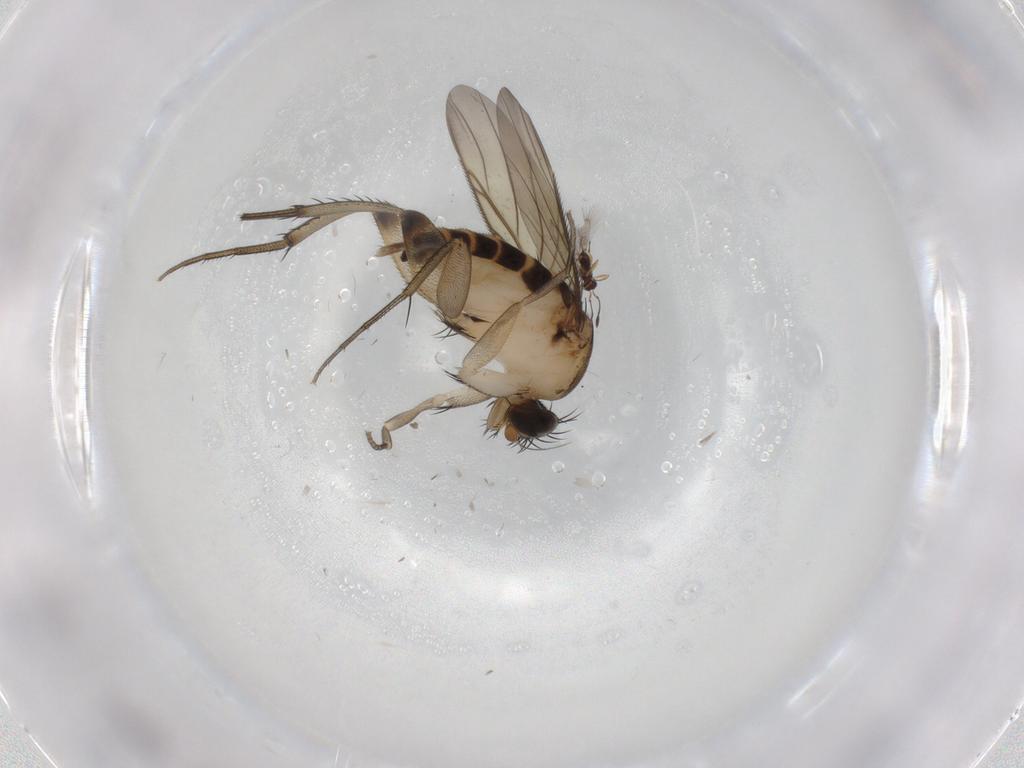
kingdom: Animalia
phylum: Arthropoda
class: Insecta
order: Diptera
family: Phoridae
